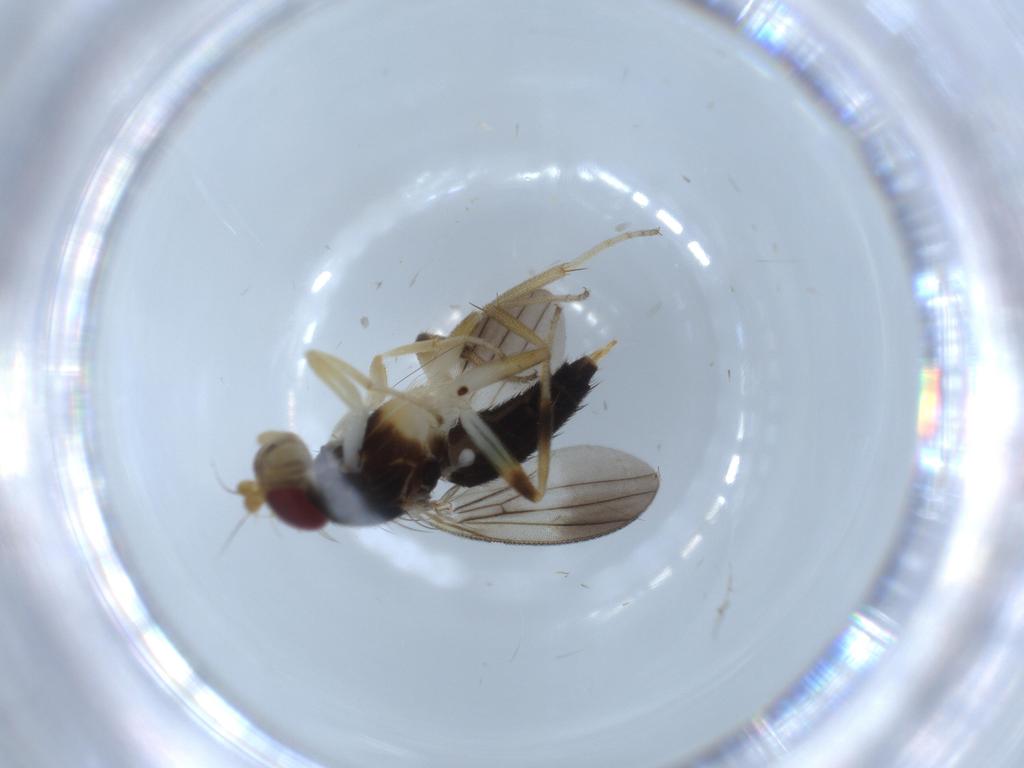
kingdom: Animalia
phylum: Arthropoda
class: Insecta
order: Diptera
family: Clusiidae
